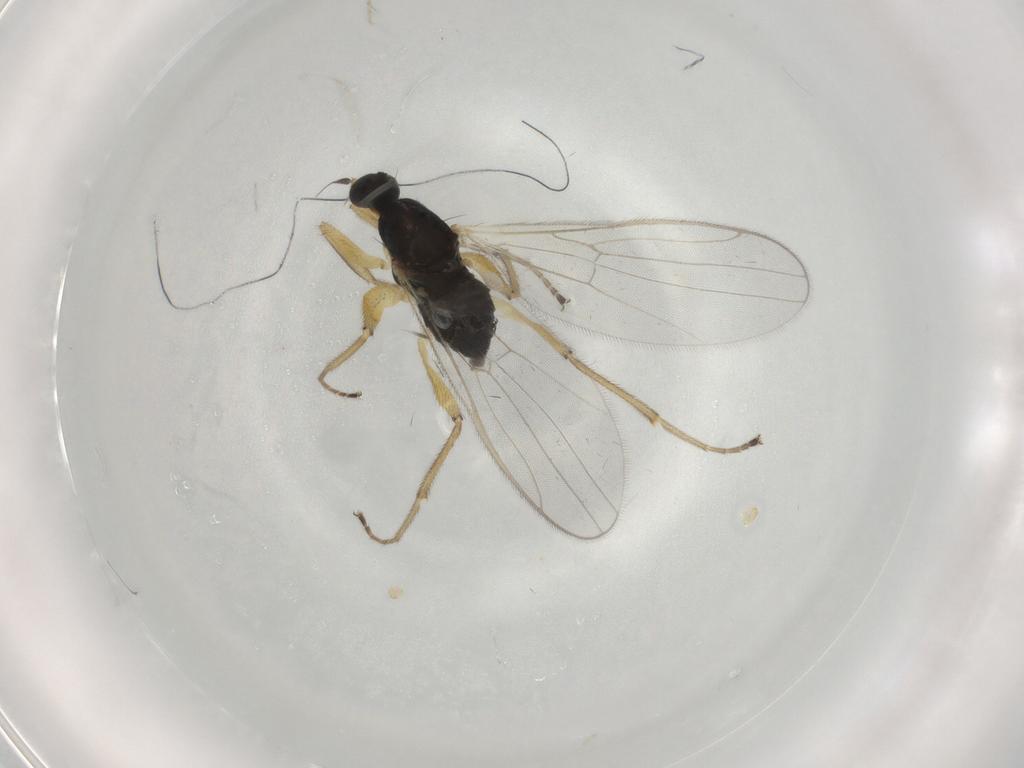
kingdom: Animalia
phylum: Arthropoda
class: Insecta
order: Diptera
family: Hybotidae
